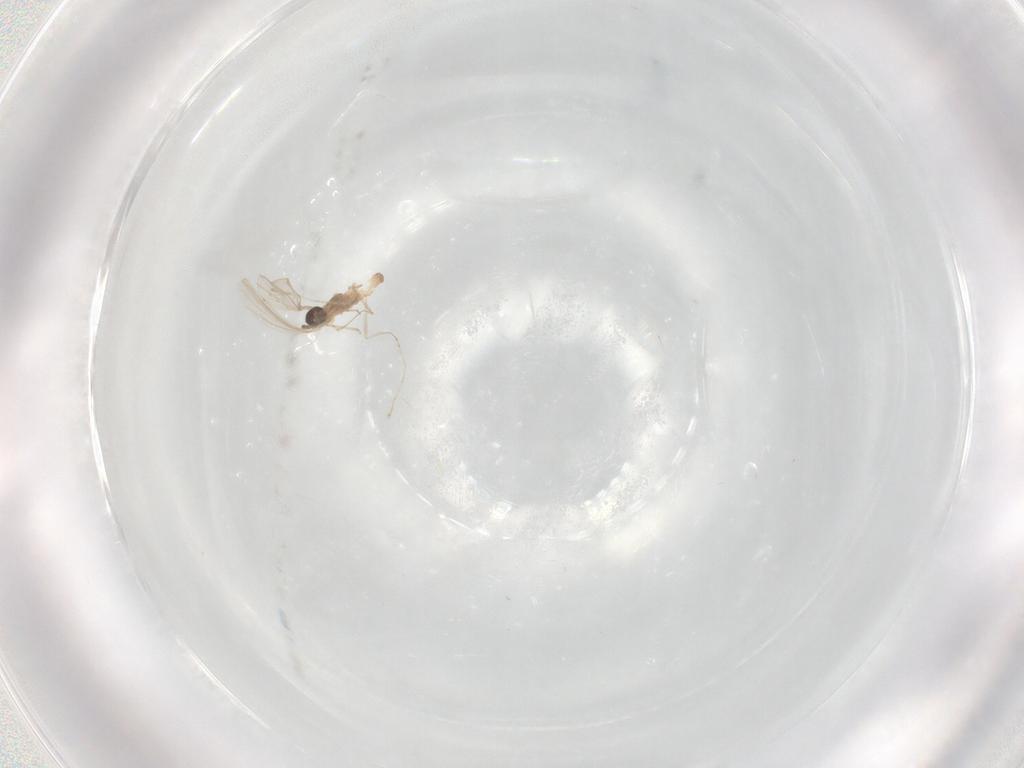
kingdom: Animalia
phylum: Arthropoda
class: Insecta
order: Diptera
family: Cecidomyiidae
